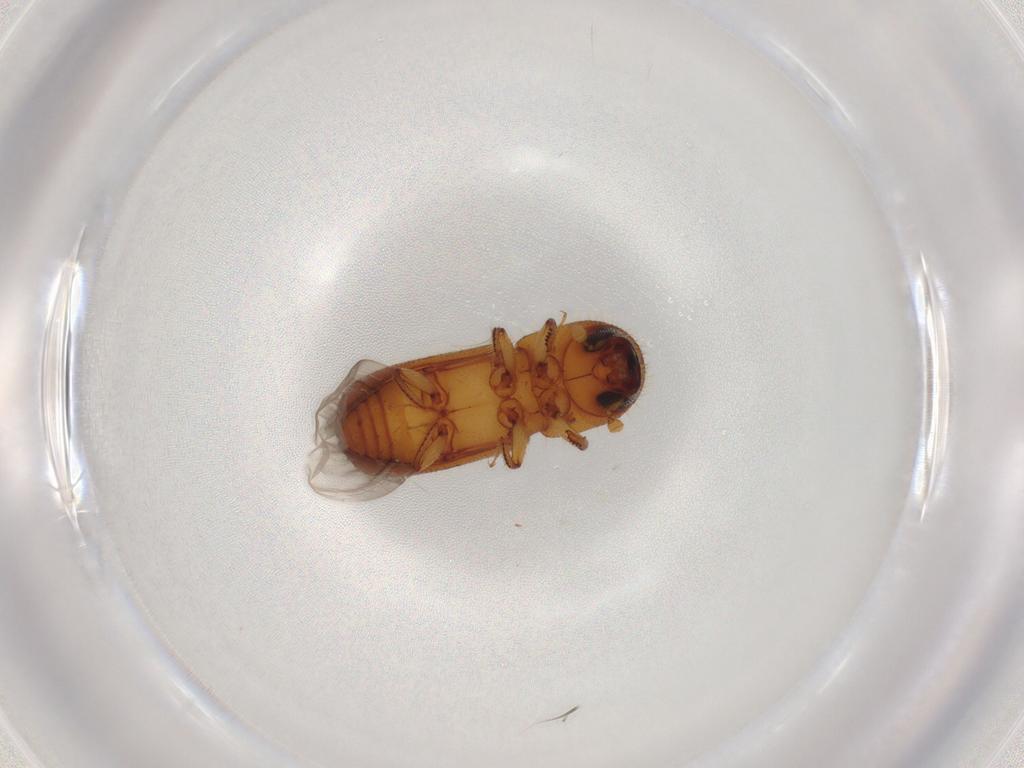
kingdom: Animalia
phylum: Arthropoda
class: Insecta
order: Coleoptera
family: Curculionidae
